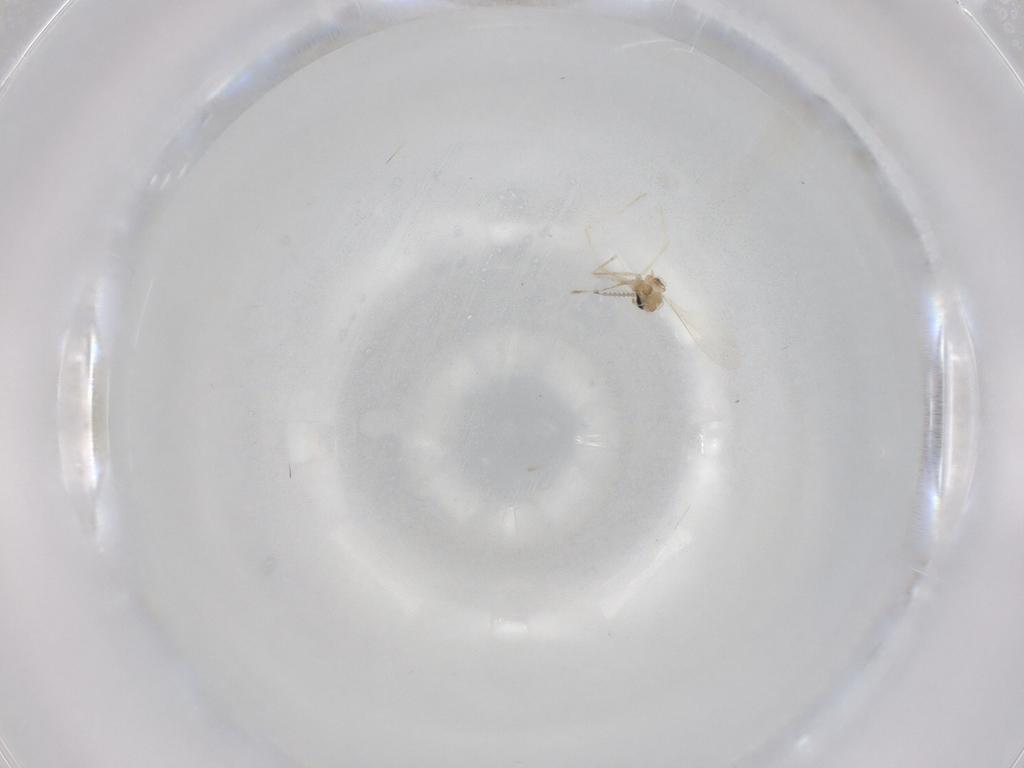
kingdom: Animalia
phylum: Arthropoda
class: Insecta
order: Diptera
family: Cecidomyiidae
